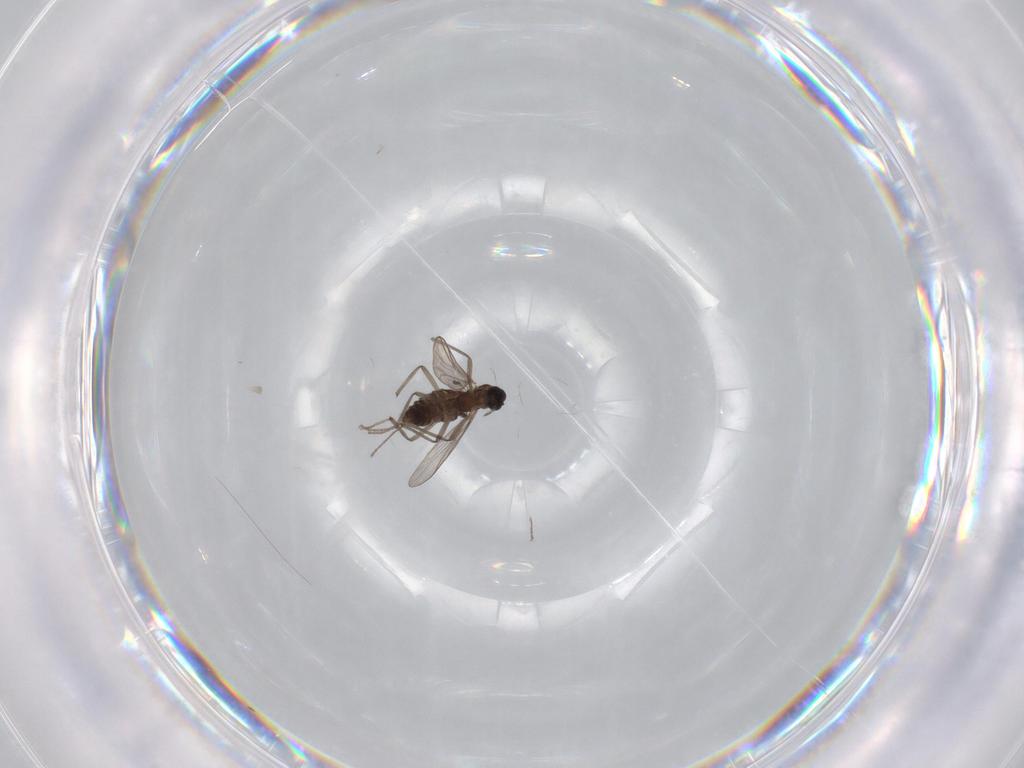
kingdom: Animalia
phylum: Arthropoda
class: Insecta
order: Diptera
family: Chironomidae
